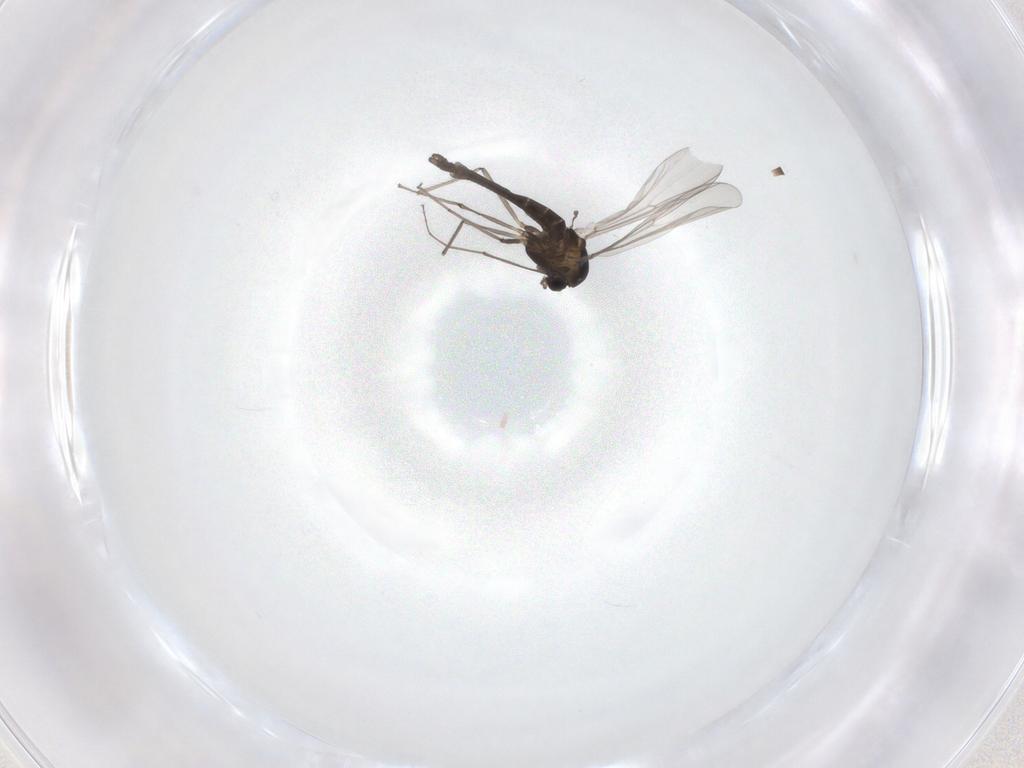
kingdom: Animalia
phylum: Arthropoda
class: Insecta
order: Diptera
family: Chironomidae
